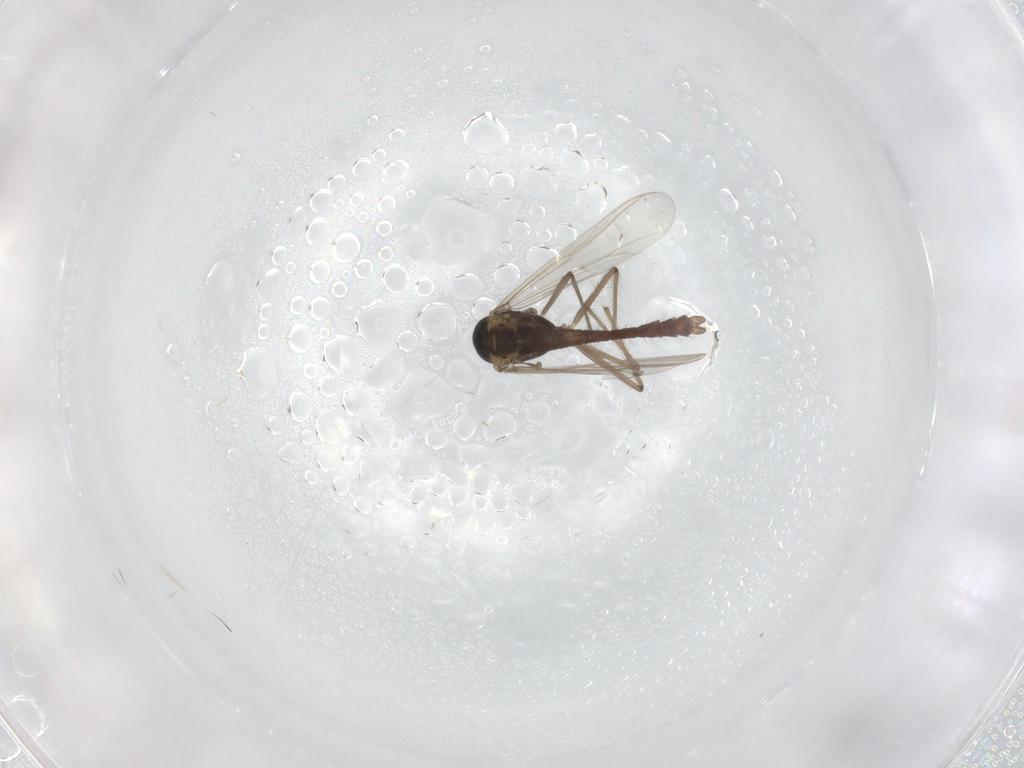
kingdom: Animalia
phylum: Arthropoda
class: Insecta
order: Diptera
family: Chironomidae
